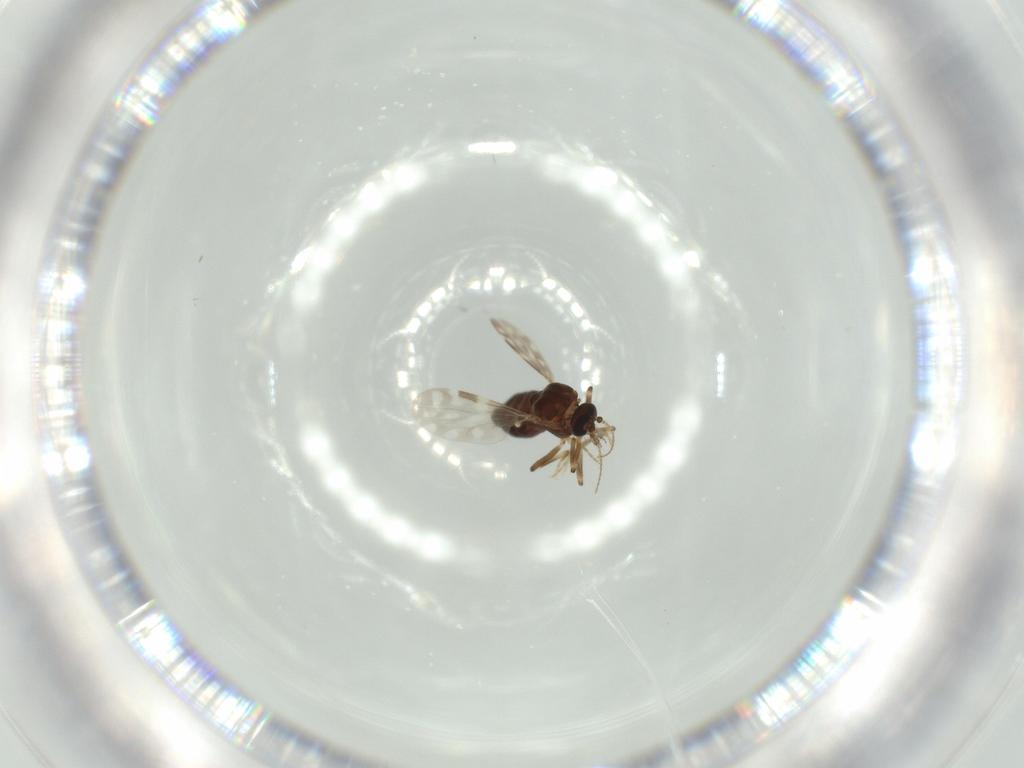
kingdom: Animalia
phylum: Arthropoda
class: Insecta
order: Diptera
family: Ceratopogonidae
